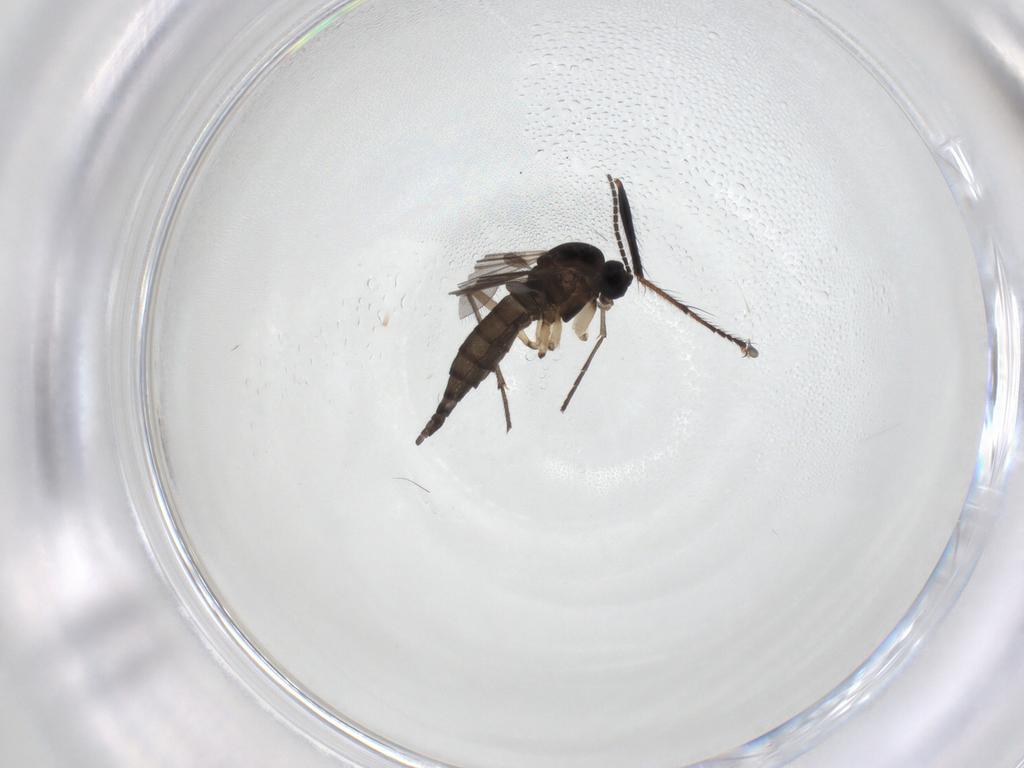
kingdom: Animalia
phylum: Arthropoda
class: Insecta
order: Diptera
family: Sciaridae
